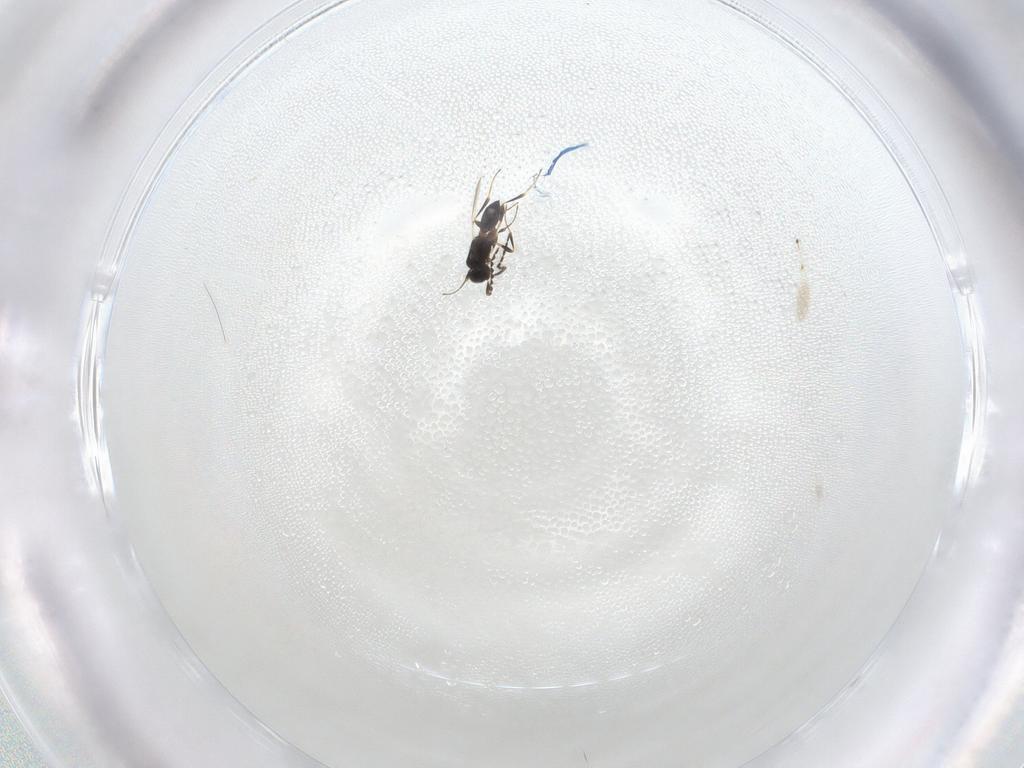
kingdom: Animalia
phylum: Arthropoda
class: Insecta
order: Hymenoptera
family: Platygastridae
